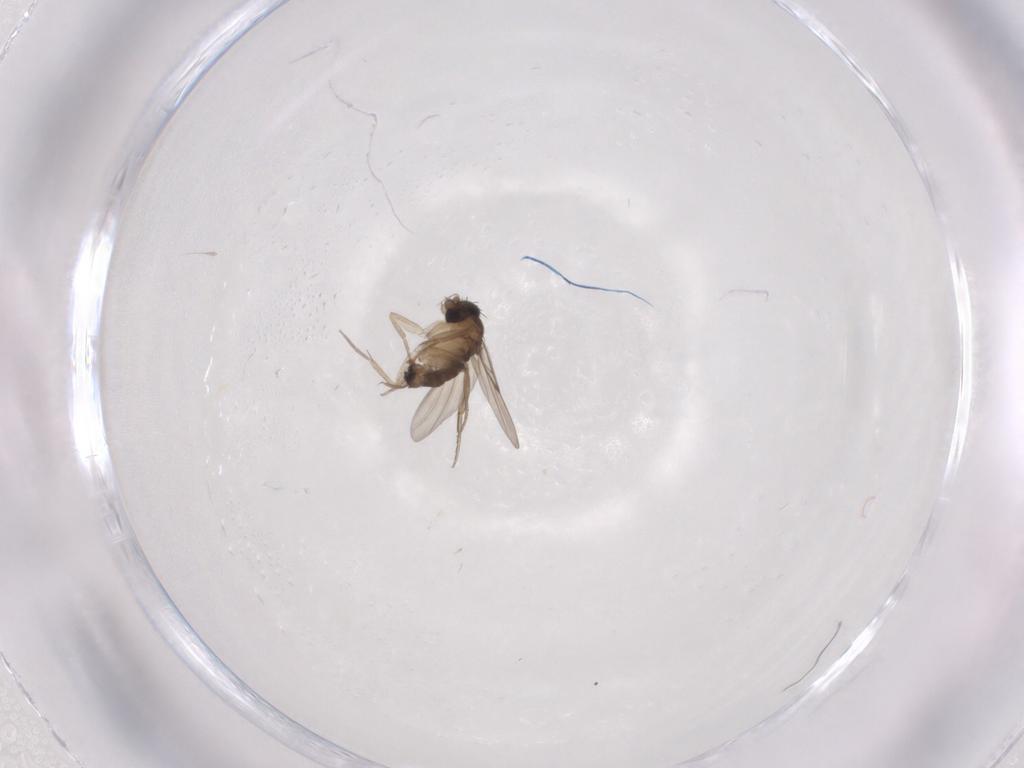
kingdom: Animalia
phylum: Arthropoda
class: Insecta
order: Diptera
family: Phoridae
